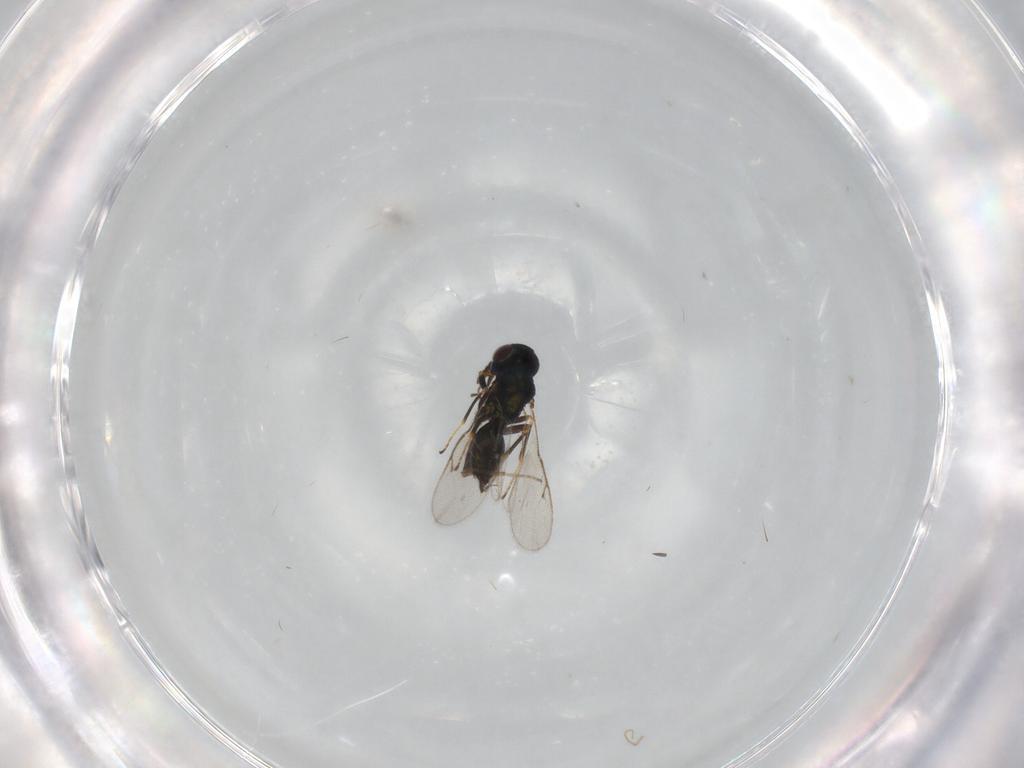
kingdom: Animalia
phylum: Arthropoda
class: Insecta
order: Hymenoptera
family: Pteromalidae
